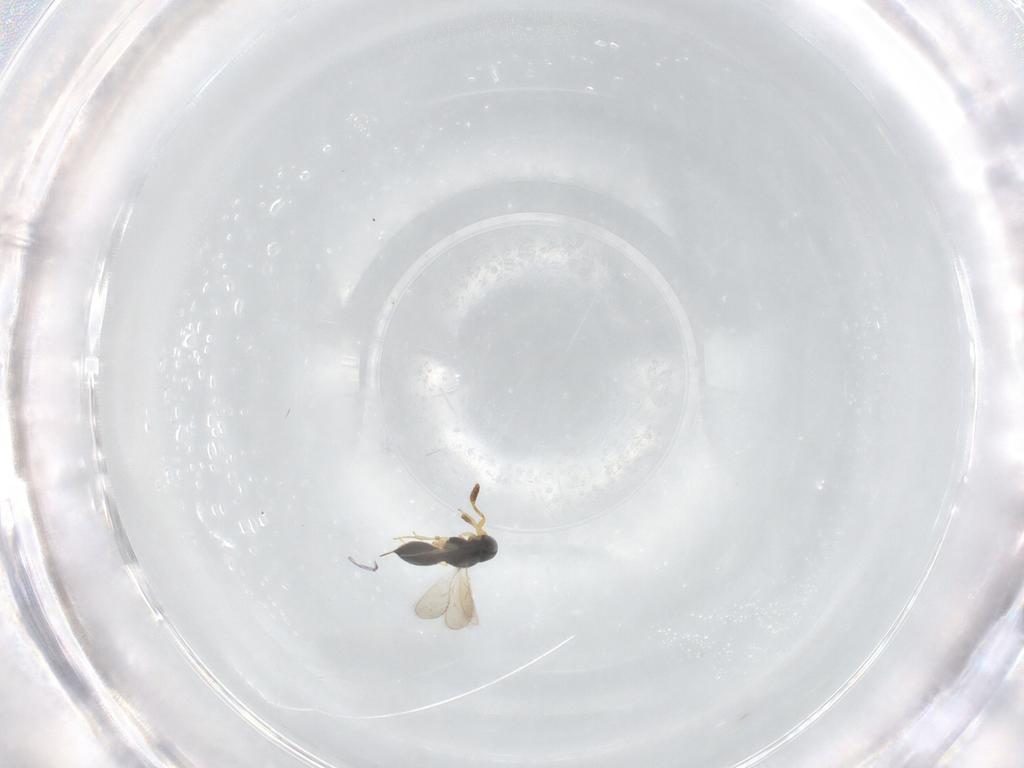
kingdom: Animalia
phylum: Arthropoda
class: Insecta
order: Hymenoptera
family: Scelionidae
